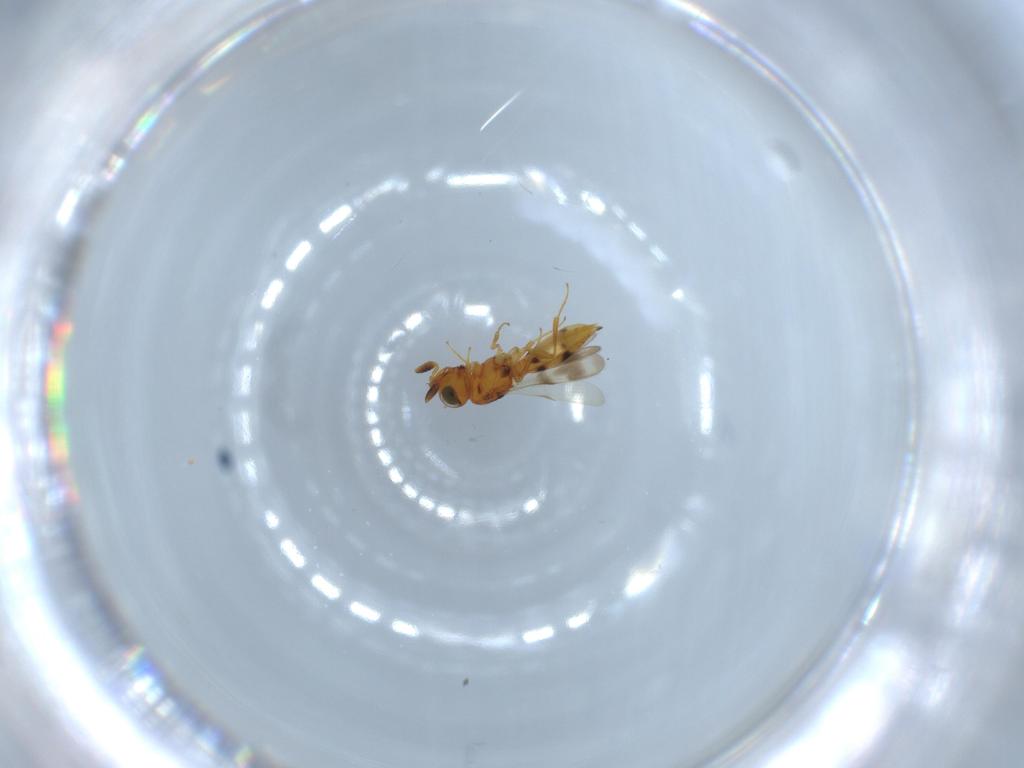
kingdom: Animalia
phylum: Arthropoda
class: Insecta
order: Hymenoptera
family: Scelionidae
